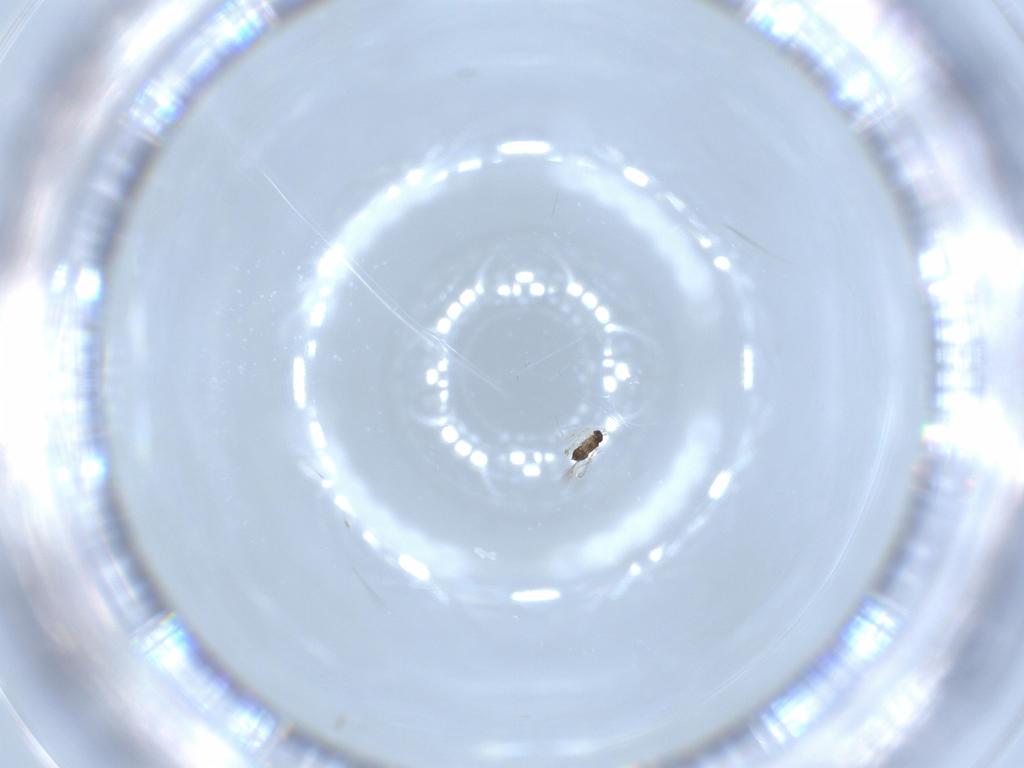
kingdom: Animalia
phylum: Arthropoda
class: Insecta
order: Hymenoptera
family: Mymaridae
